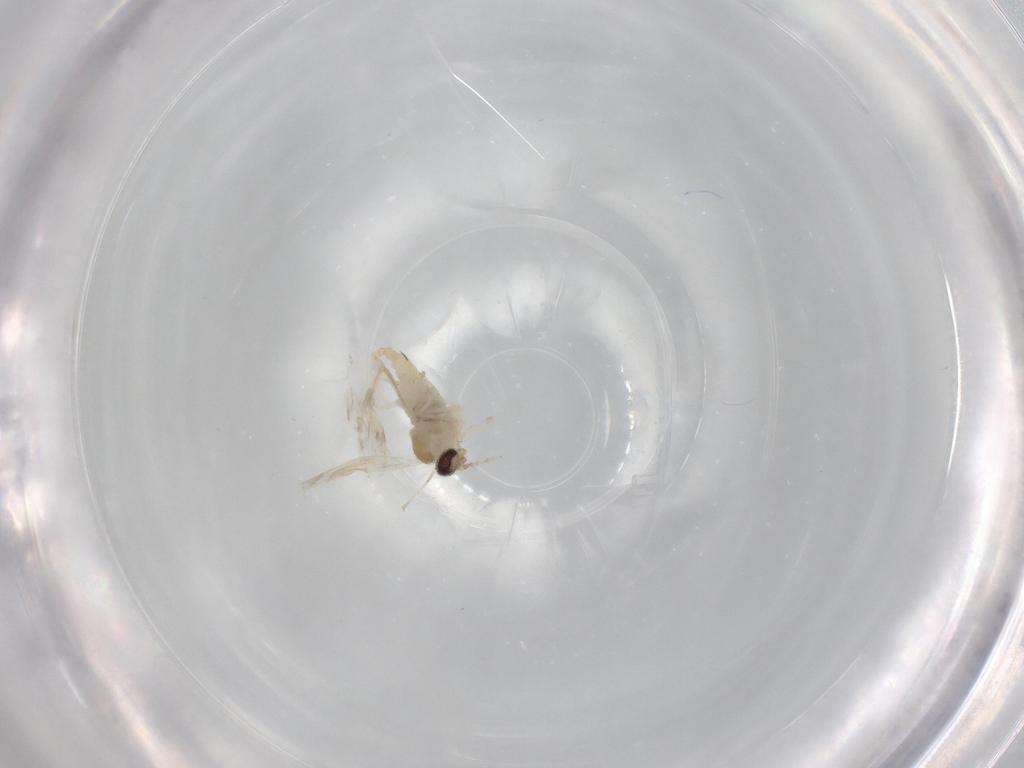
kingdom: Animalia
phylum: Arthropoda
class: Insecta
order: Diptera
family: Cecidomyiidae
